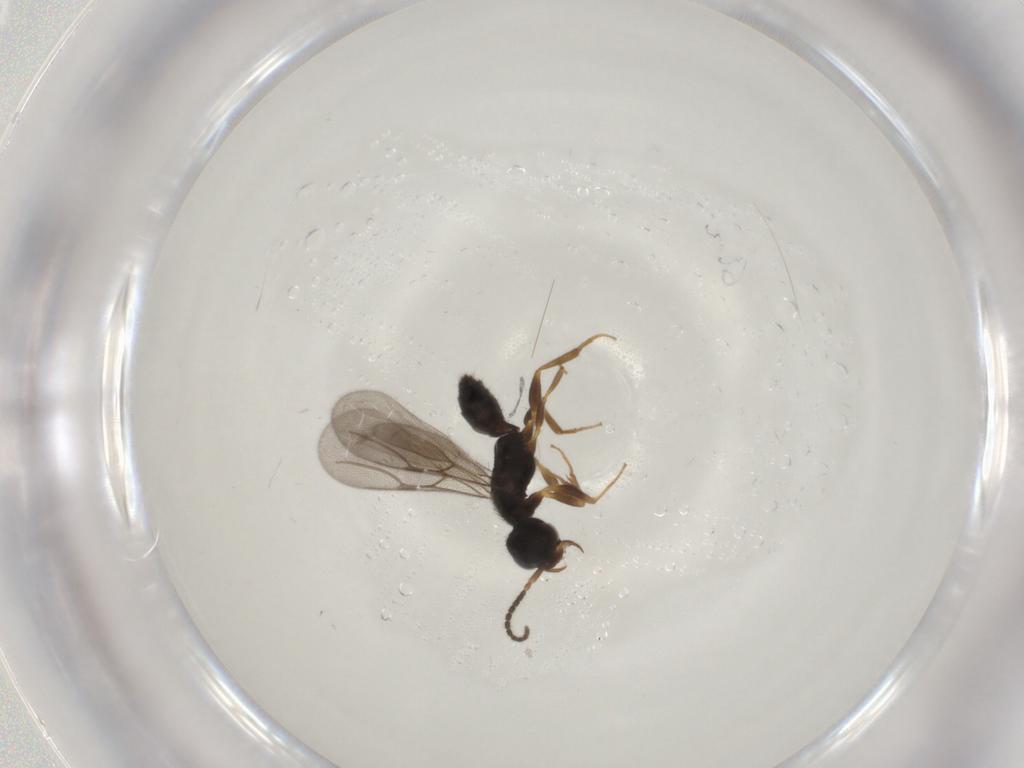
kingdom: Animalia
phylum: Arthropoda
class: Insecta
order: Hymenoptera
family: Bethylidae
